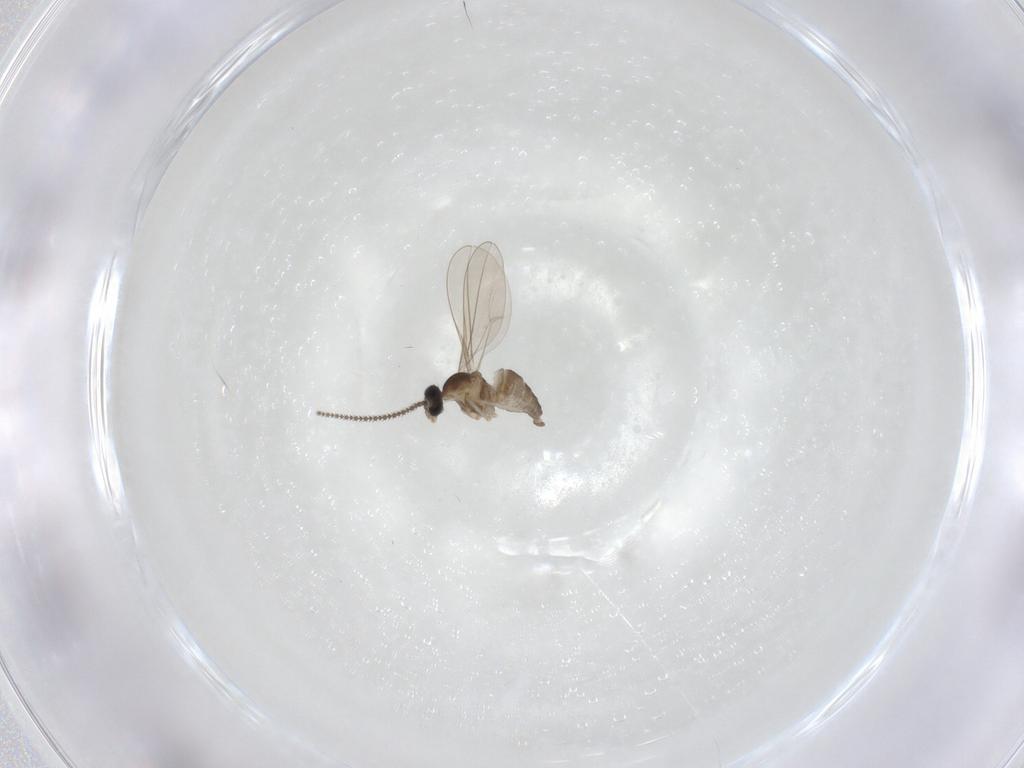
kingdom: Animalia
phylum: Arthropoda
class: Insecta
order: Diptera
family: Cecidomyiidae
